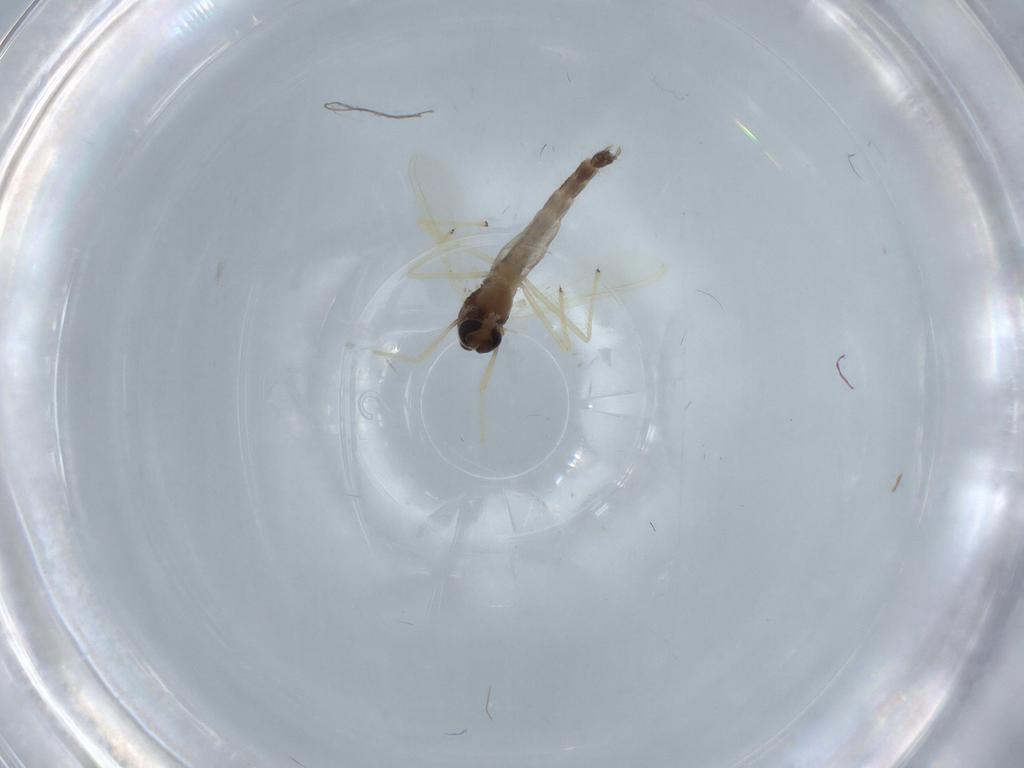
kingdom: Animalia
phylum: Arthropoda
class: Insecta
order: Diptera
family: Chironomidae
